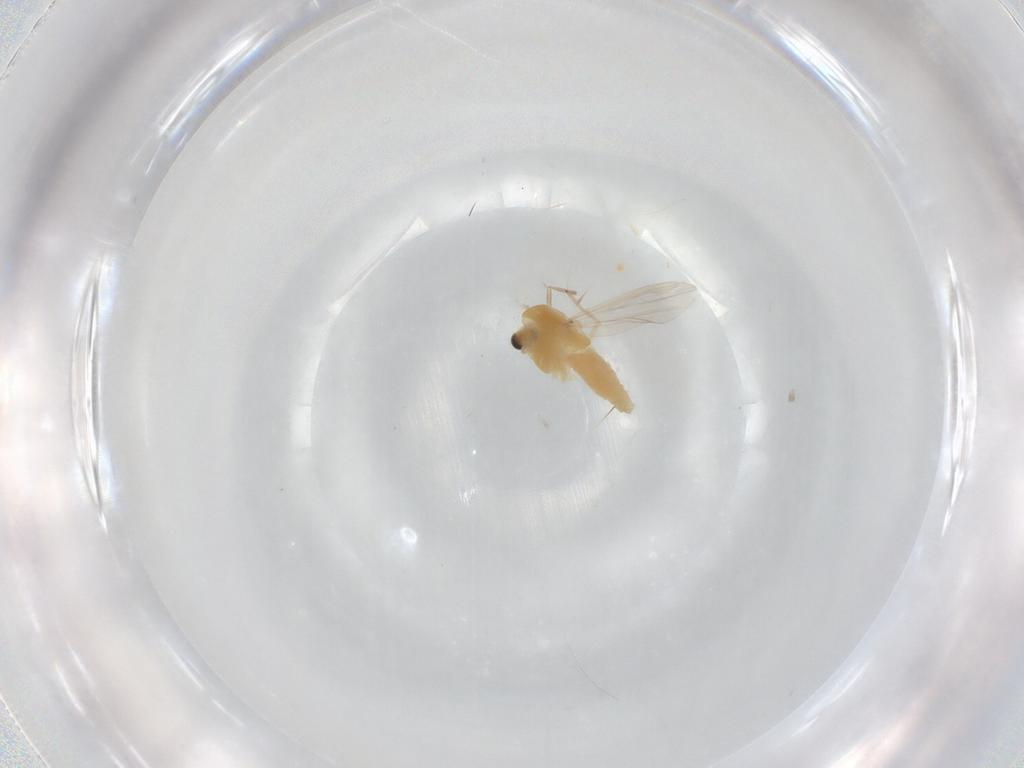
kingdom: Animalia
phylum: Arthropoda
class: Insecta
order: Diptera
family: Chironomidae
